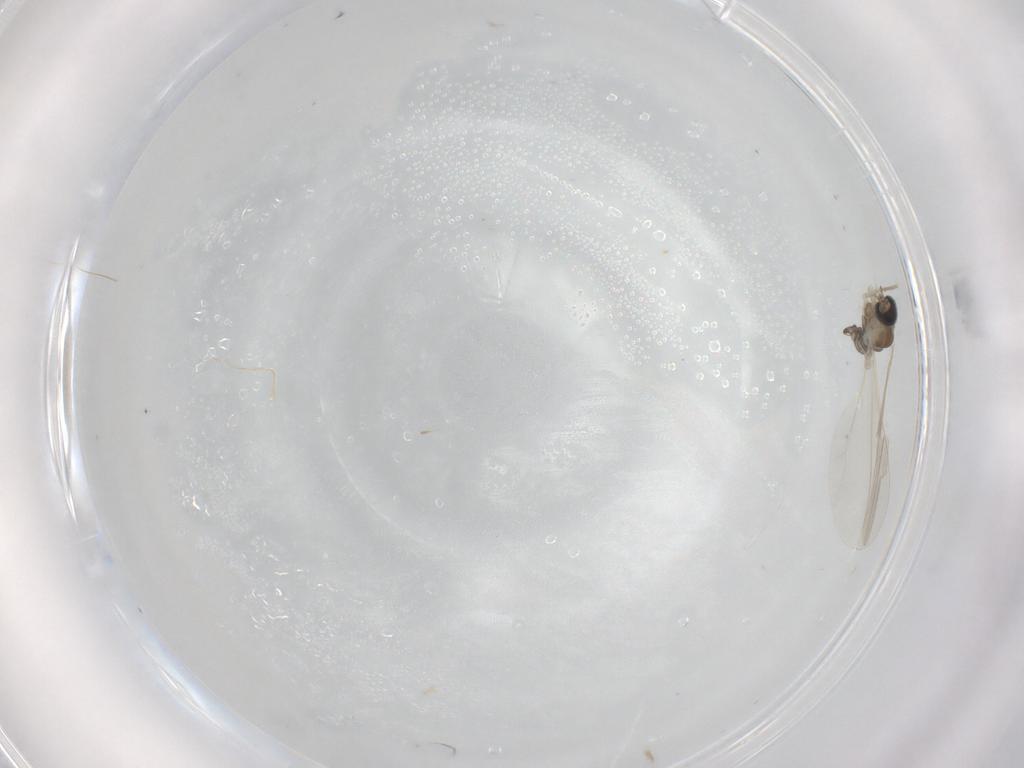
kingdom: Animalia
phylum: Arthropoda
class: Insecta
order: Diptera
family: Cecidomyiidae
